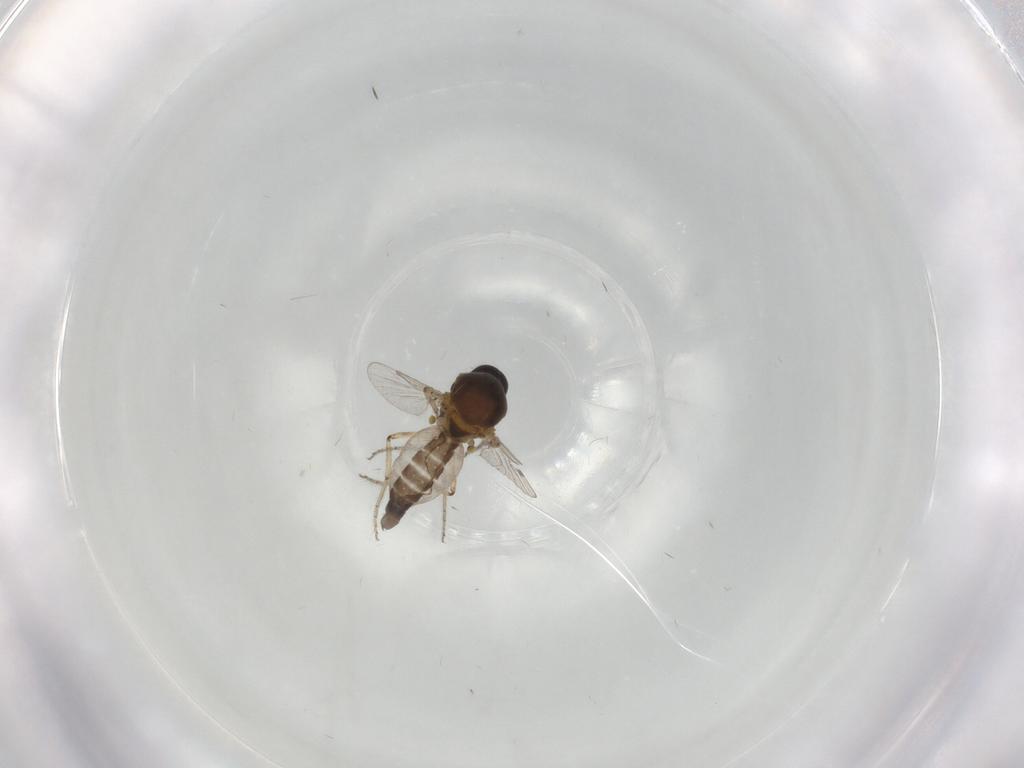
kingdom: Animalia
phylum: Arthropoda
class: Insecta
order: Diptera
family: Ceratopogonidae
